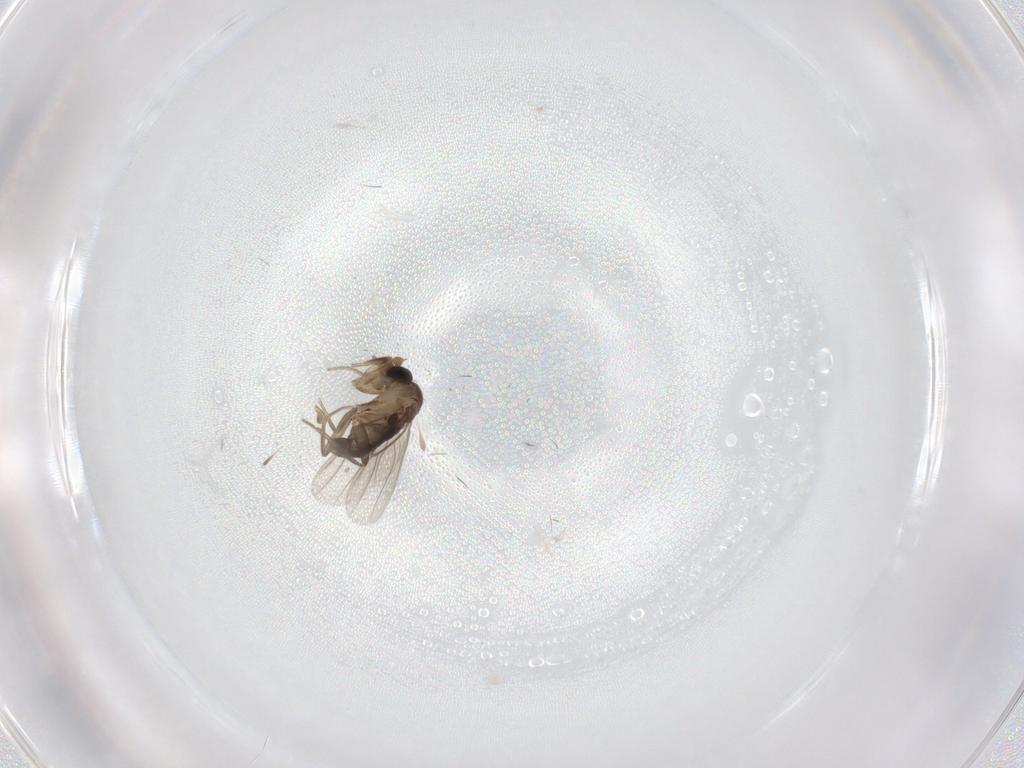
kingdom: Animalia
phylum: Arthropoda
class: Insecta
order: Diptera
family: Phoridae
